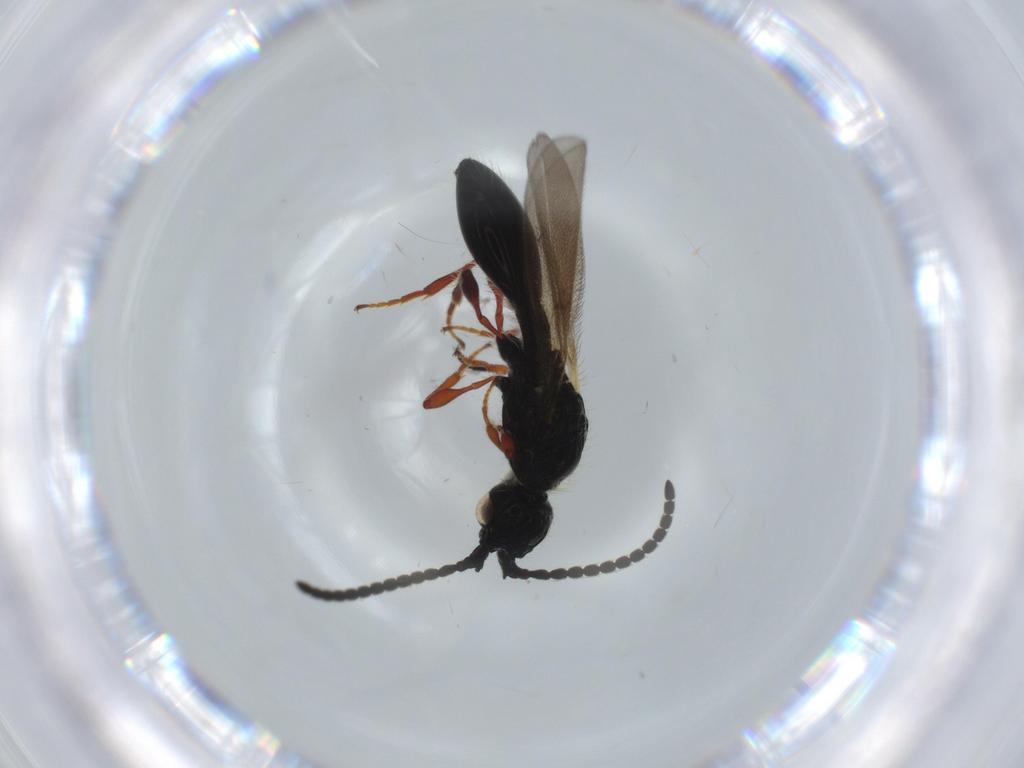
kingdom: Animalia
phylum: Arthropoda
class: Insecta
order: Hymenoptera
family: Diapriidae
